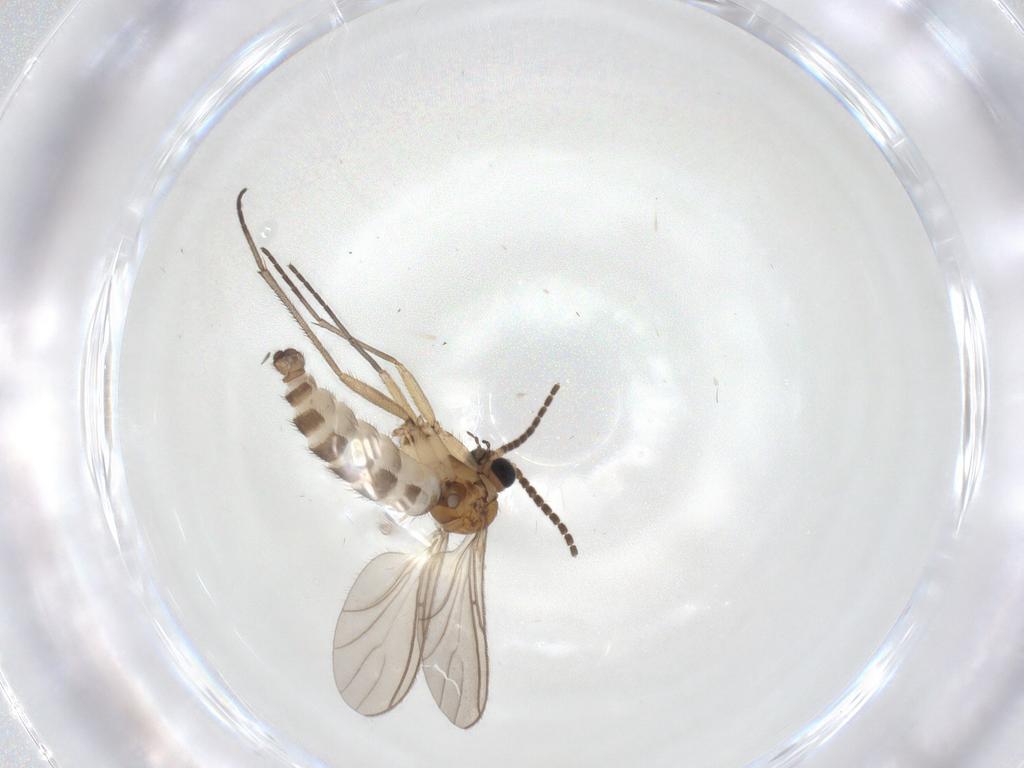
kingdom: Animalia
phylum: Arthropoda
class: Insecta
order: Diptera
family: Sciaridae
